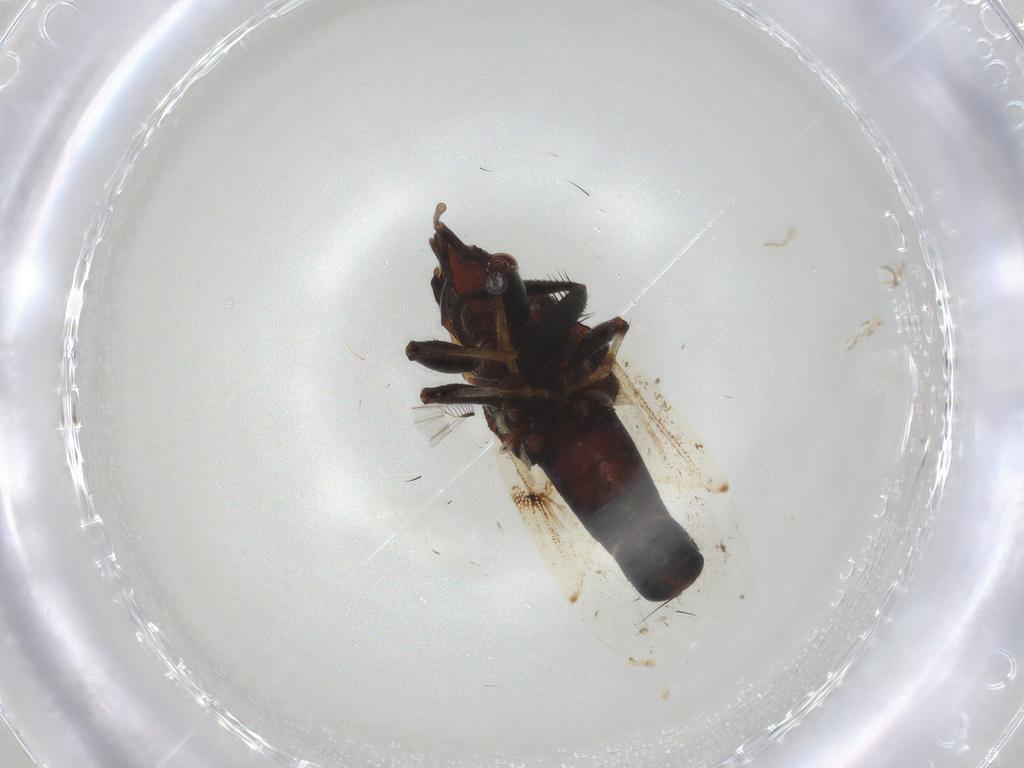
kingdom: Animalia
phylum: Arthropoda
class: Insecta
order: Hemiptera
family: Oxycarenidae
